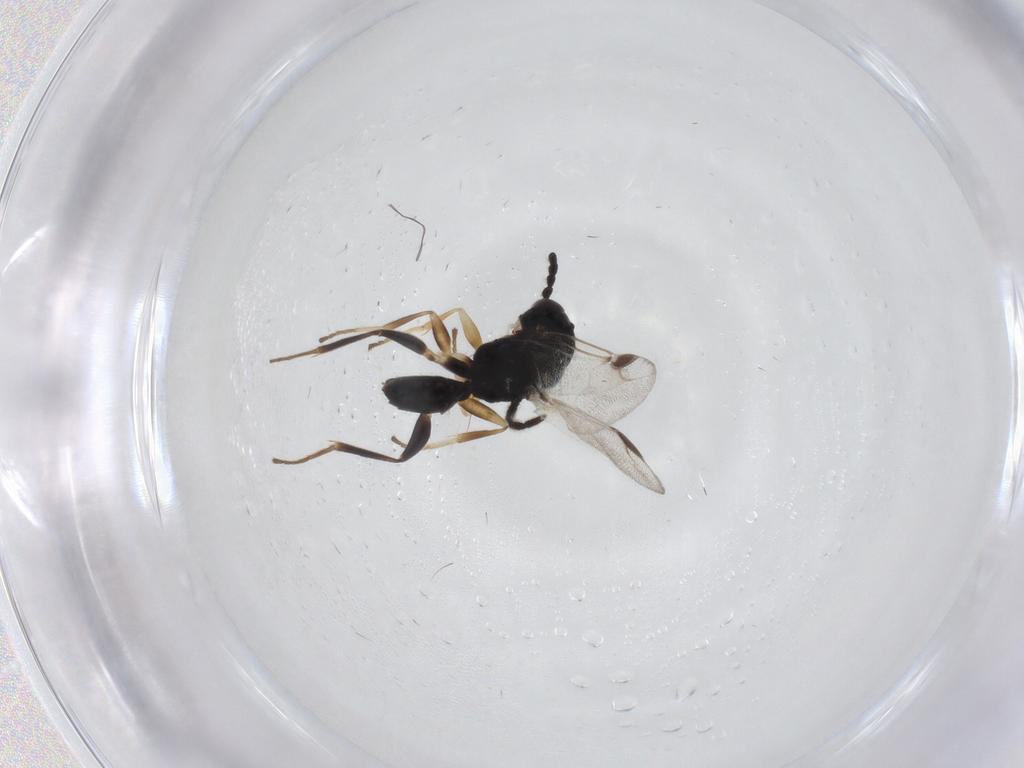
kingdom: Animalia
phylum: Arthropoda
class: Insecta
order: Hymenoptera
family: Dryinidae
